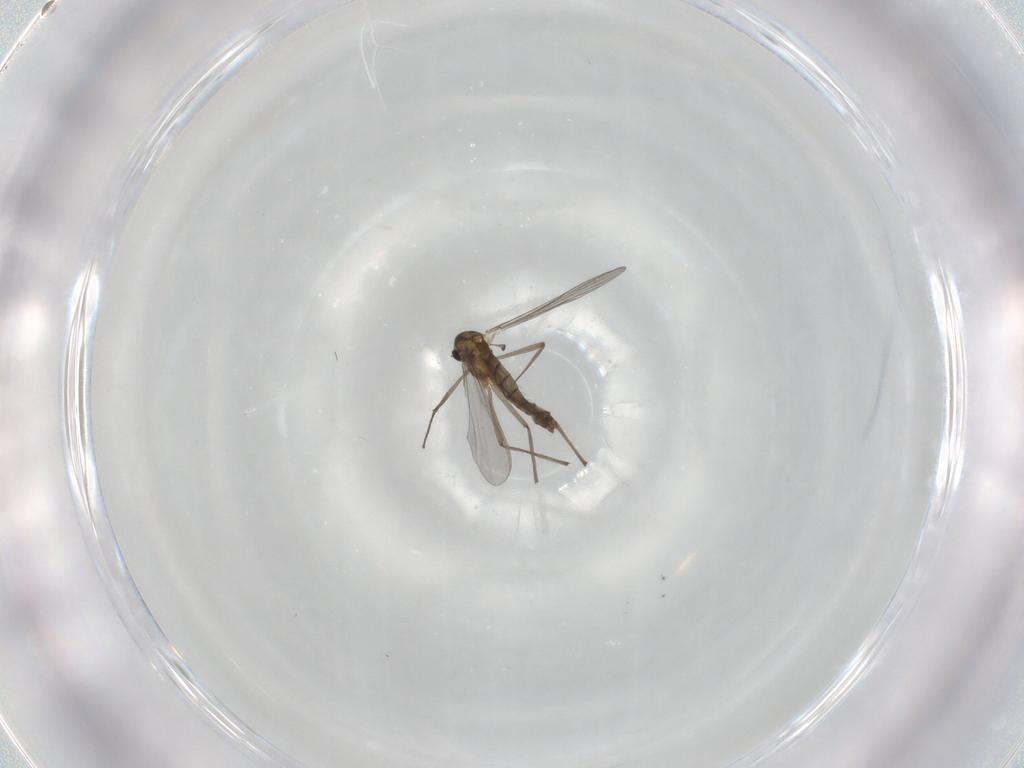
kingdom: Animalia
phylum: Arthropoda
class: Insecta
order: Diptera
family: Chironomidae
